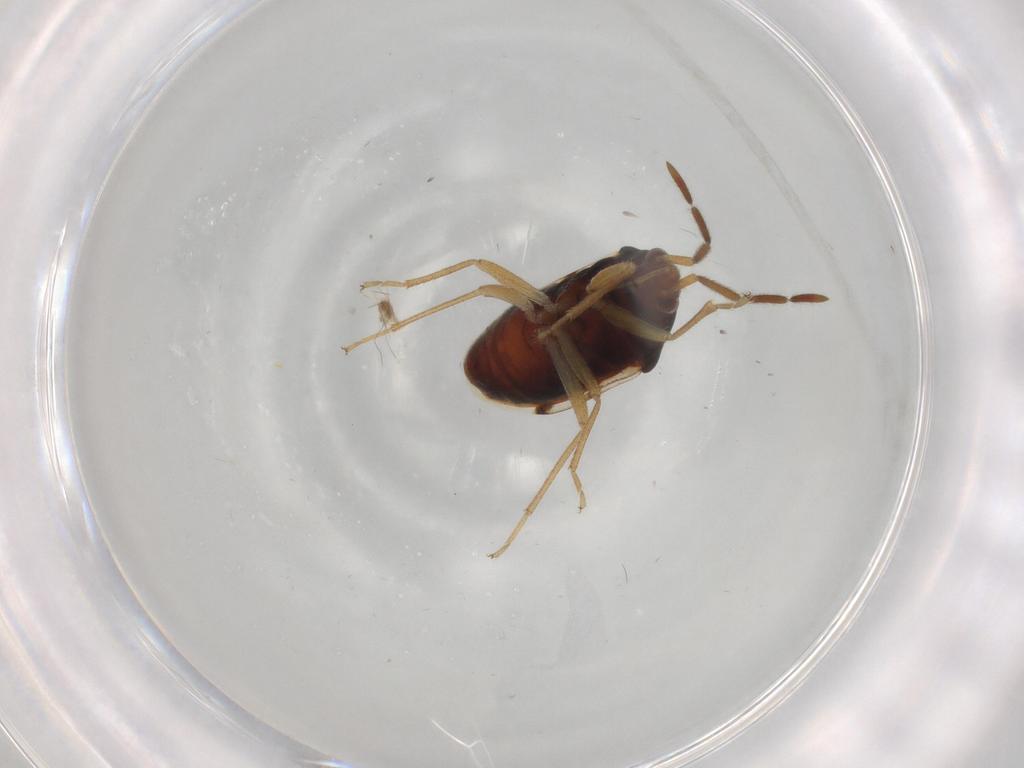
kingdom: Animalia
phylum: Arthropoda
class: Insecta
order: Hemiptera
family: Rhyparochromidae
